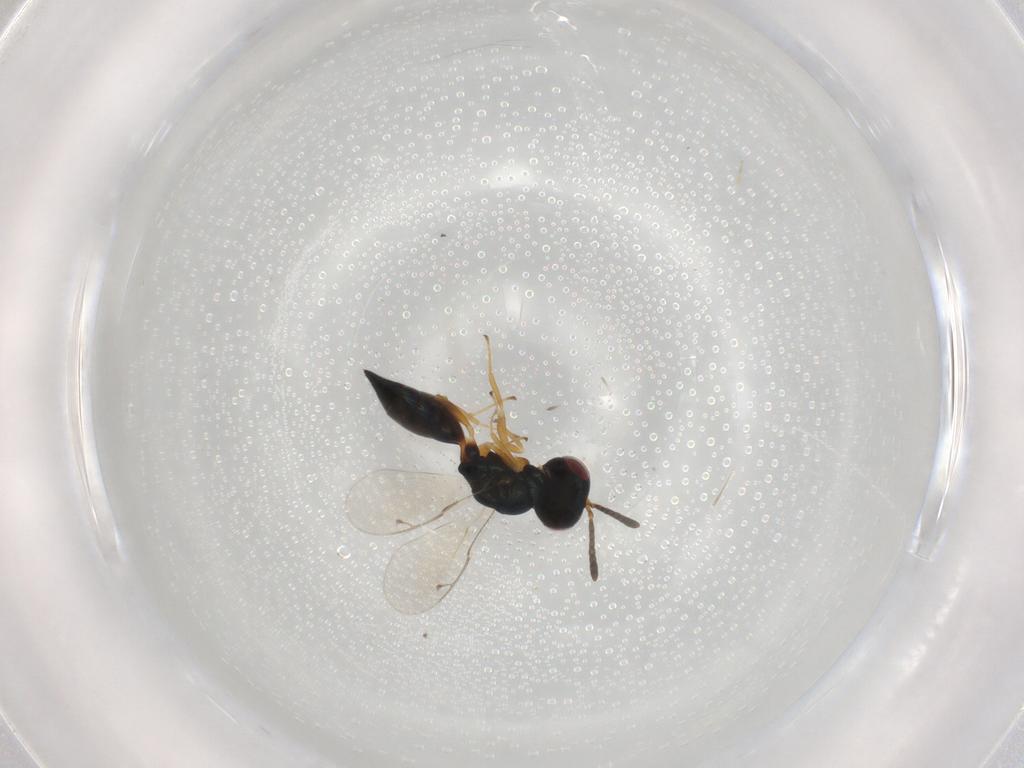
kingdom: Animalia
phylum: Arthropoda
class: Insecta
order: Hymenoptera
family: Pteromalidae
